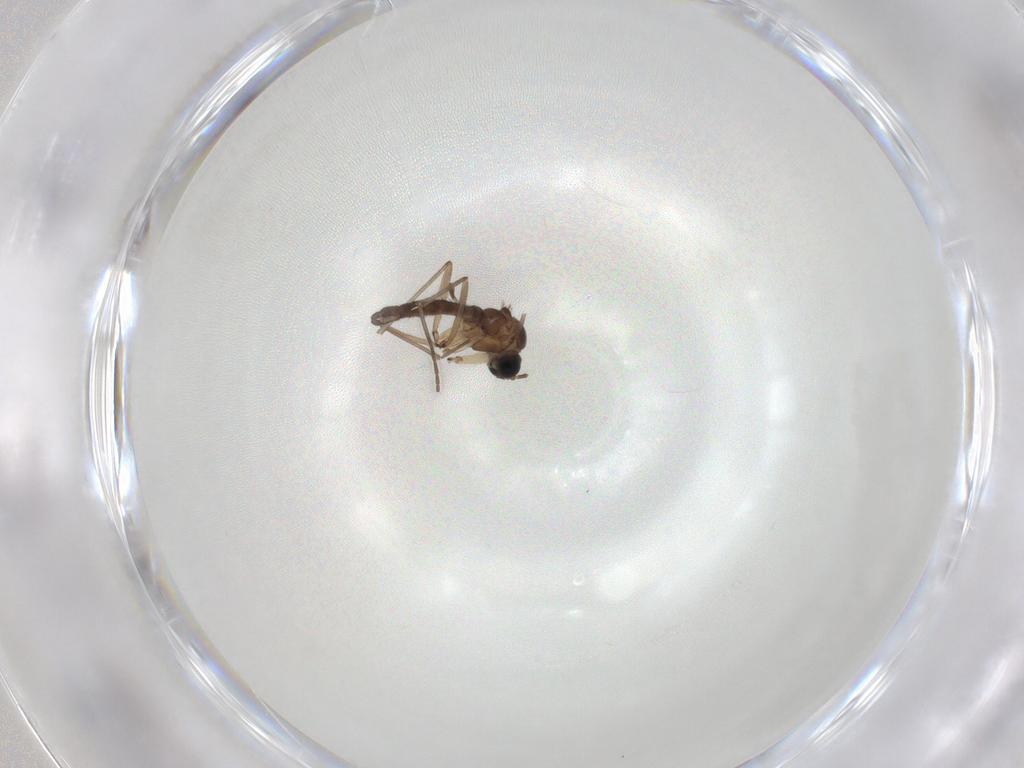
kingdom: Animalia
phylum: Arthropoda
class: Insecta
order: Diptera
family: Sciaridae
